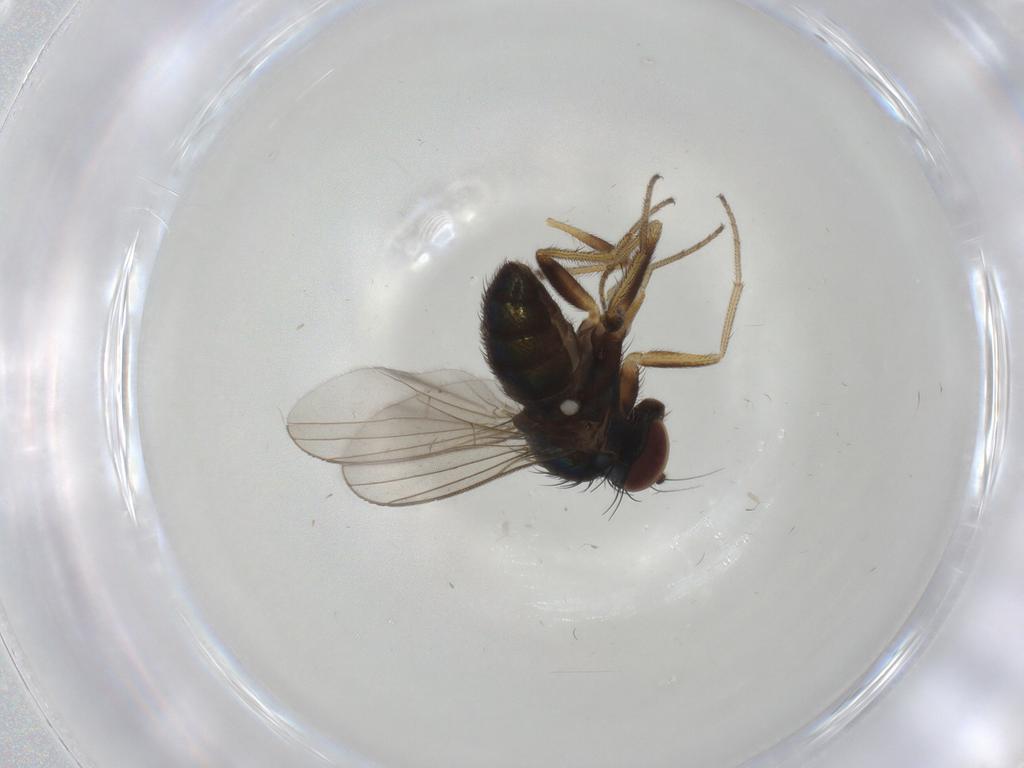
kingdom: Animalia
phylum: Arthropoda
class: Insecta
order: Diptera
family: Bibionidae
